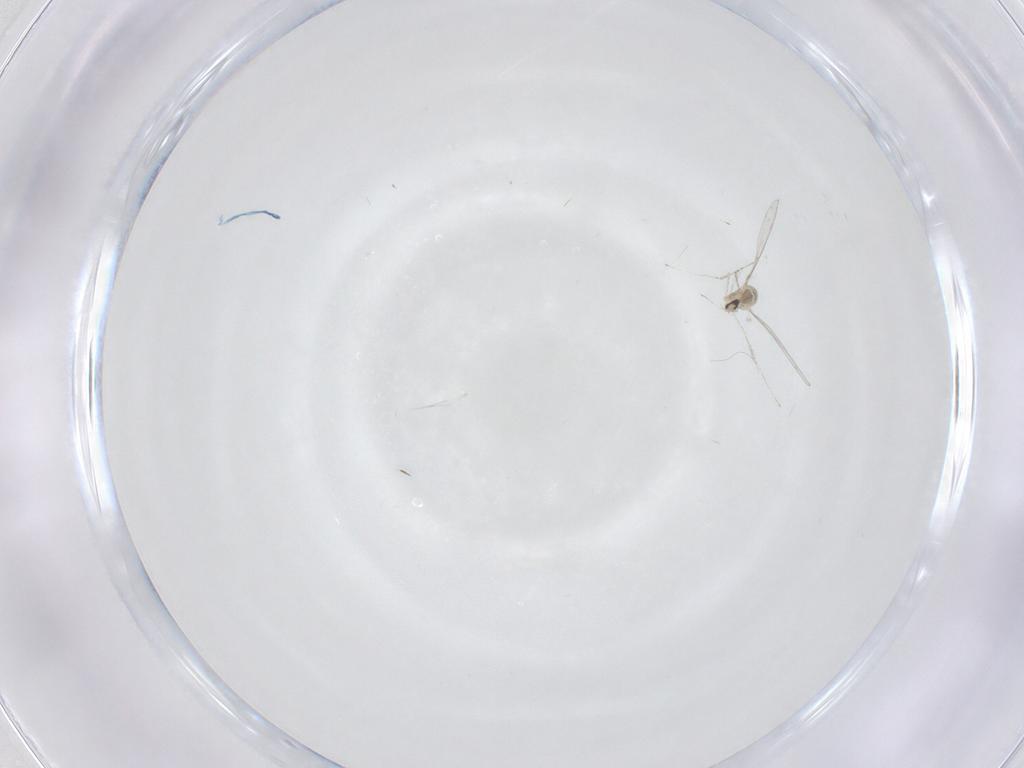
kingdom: Animalia
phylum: Arthropoda
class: Insecta
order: Diptera
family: Cecidomyiidae
